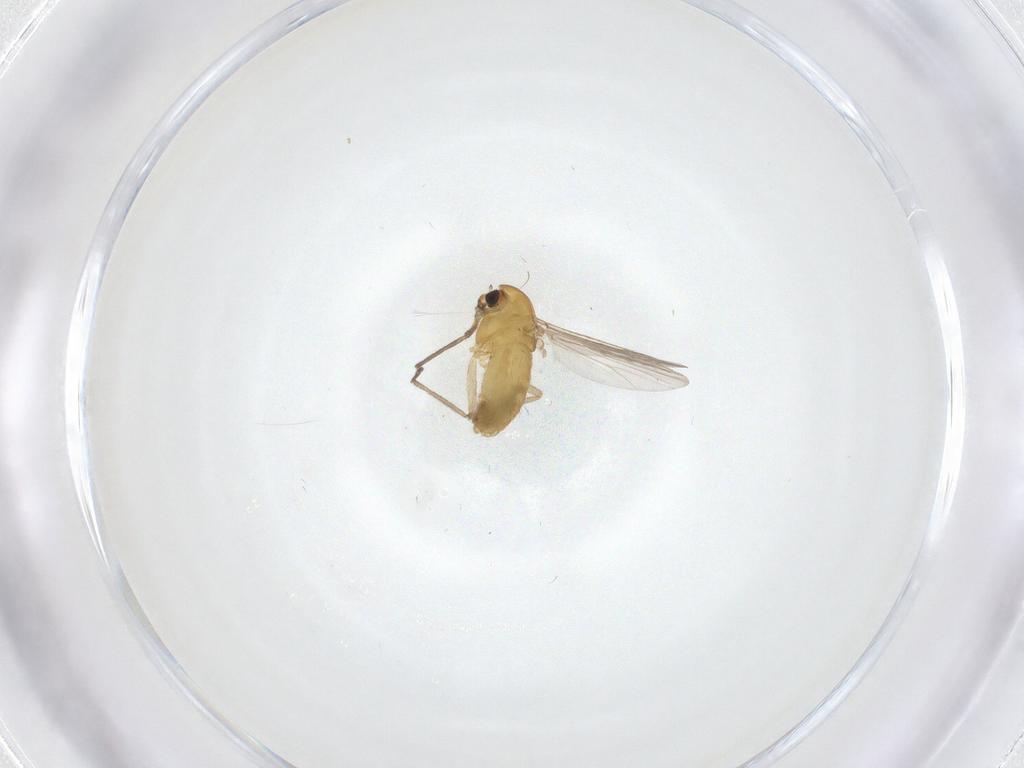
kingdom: Animalia
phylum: Arthropoda
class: Insecta
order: Diptera
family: Chironomidae
